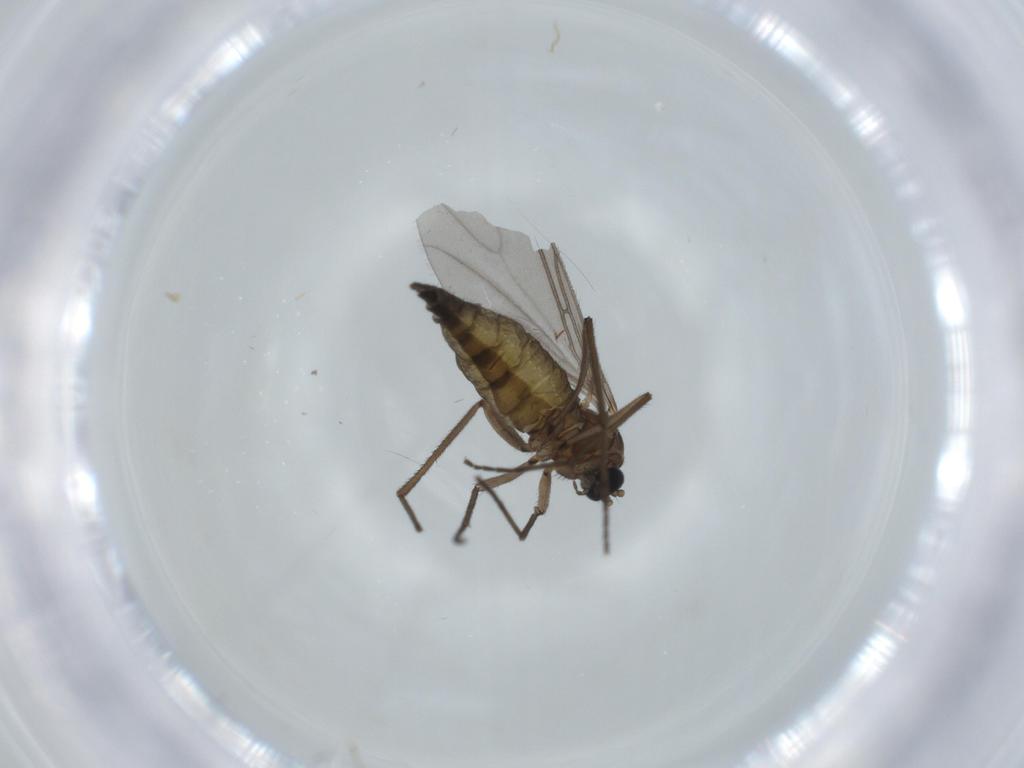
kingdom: Animalia
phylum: Arthropoda
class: Insecta
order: Diptera
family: Sciaridae
